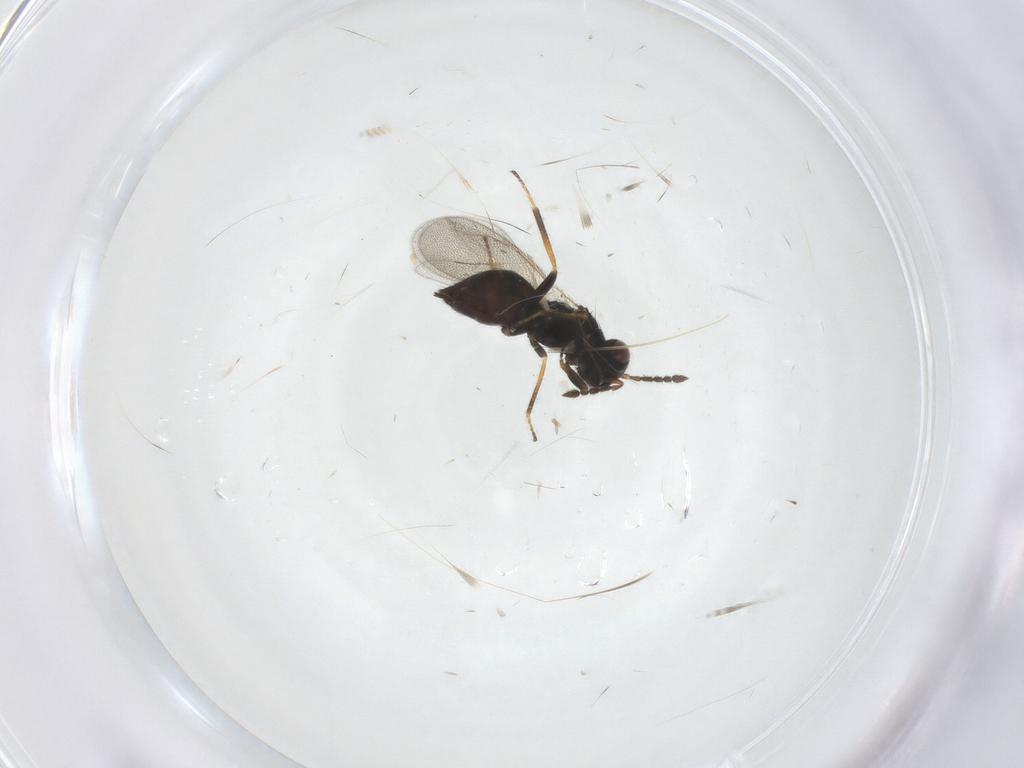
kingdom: Animalia
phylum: Arthropoda
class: Insecta
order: Hymenoptera
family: Eulophidae
